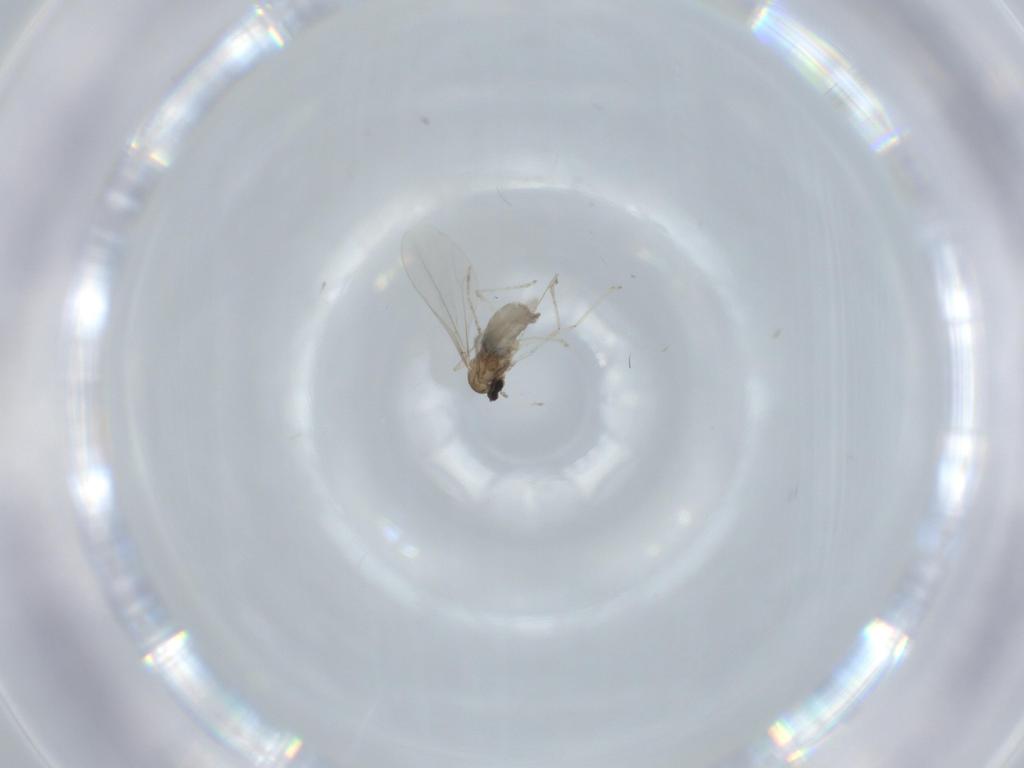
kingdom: Animalia
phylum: Arthropoda
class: Insecta
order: Diptera
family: Cecidomyiidae
